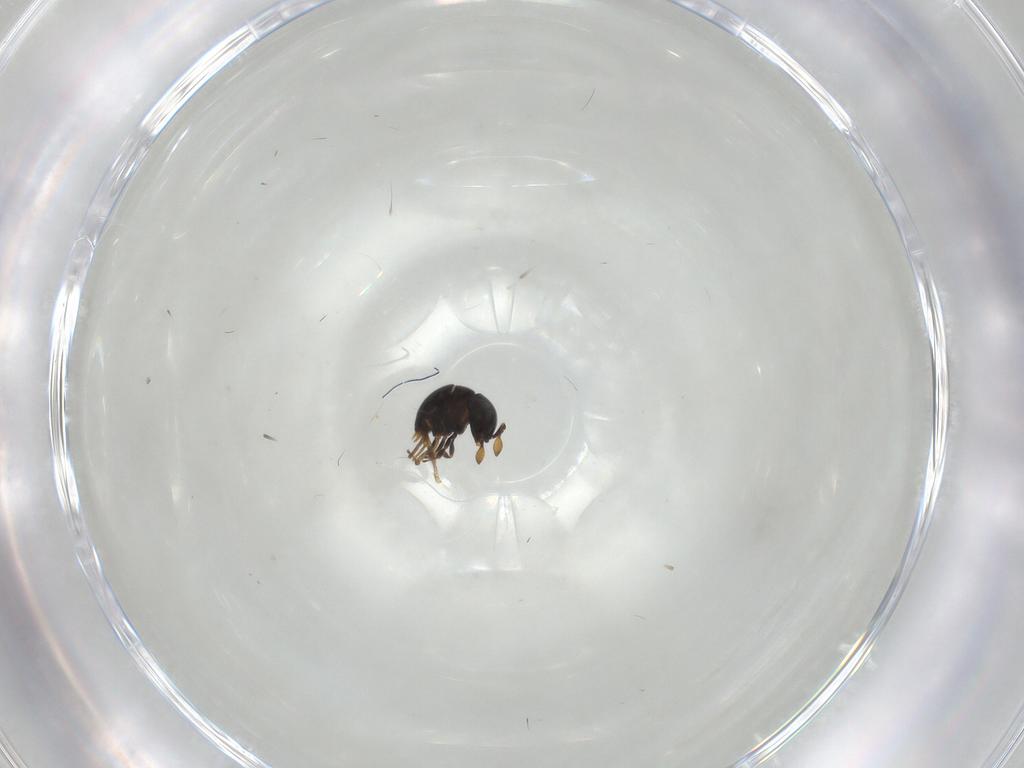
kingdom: Animalia
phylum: Arthropoda
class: Insecta
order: Hymenoptera
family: Scelionidae
